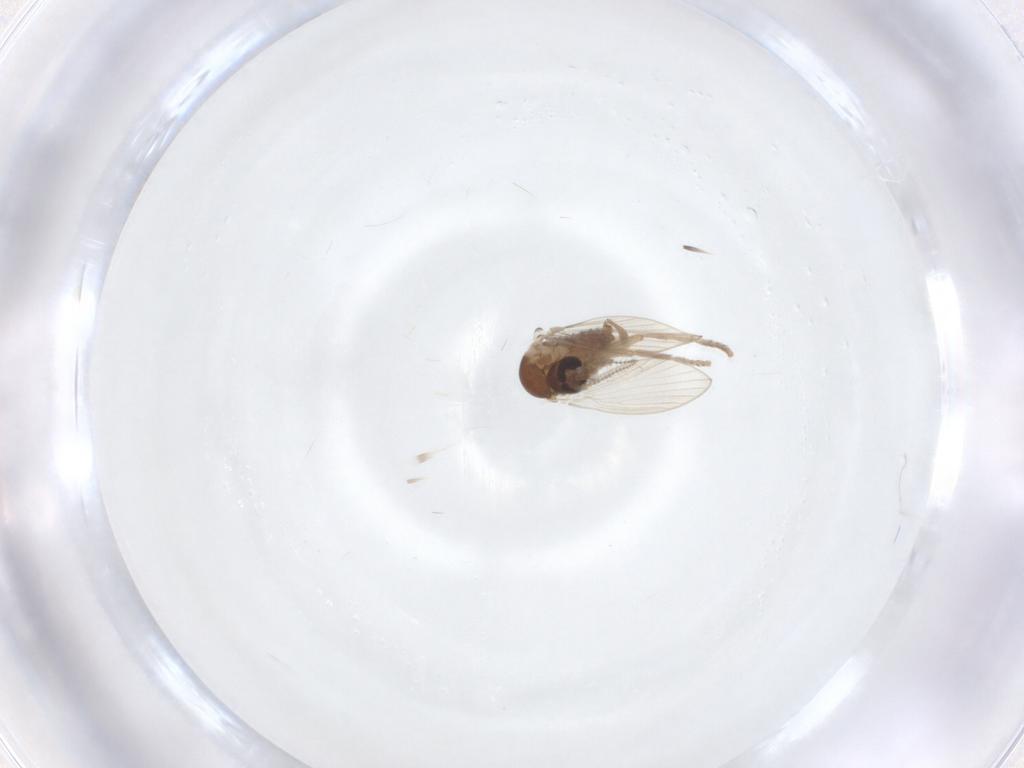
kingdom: Animalia
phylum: Arthropoda
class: Insecta
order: Diptera
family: Psychodidae
